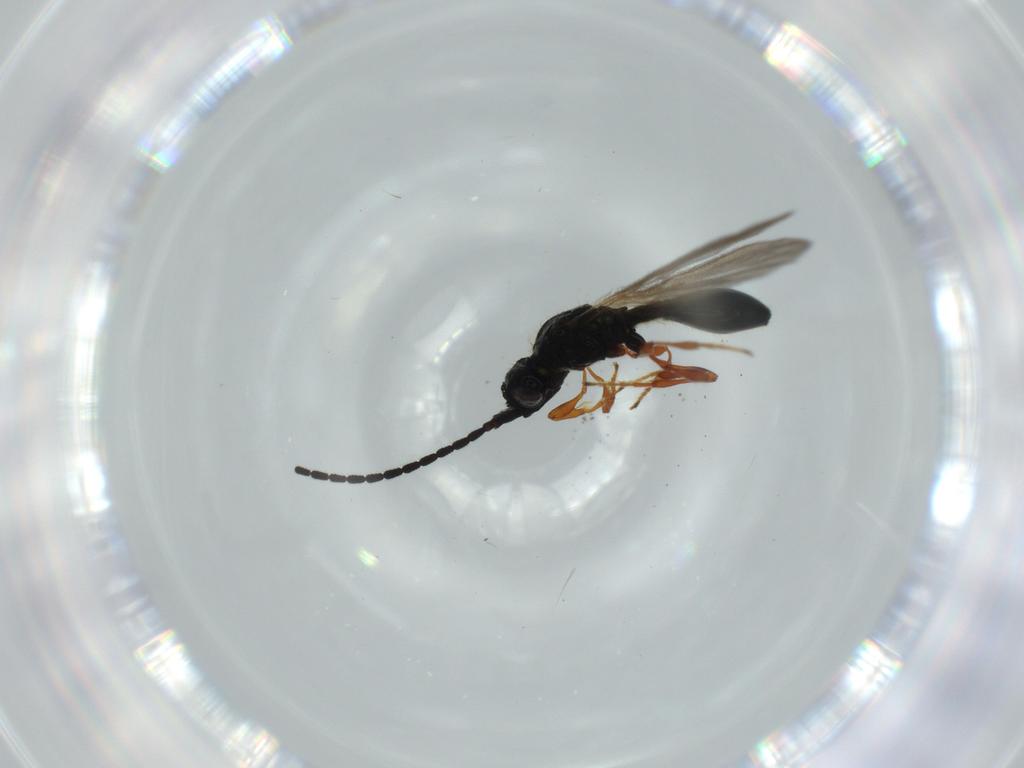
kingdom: Animalia
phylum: Arthropoda
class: Insecta
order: Hymenoptera
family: Diapriidae
